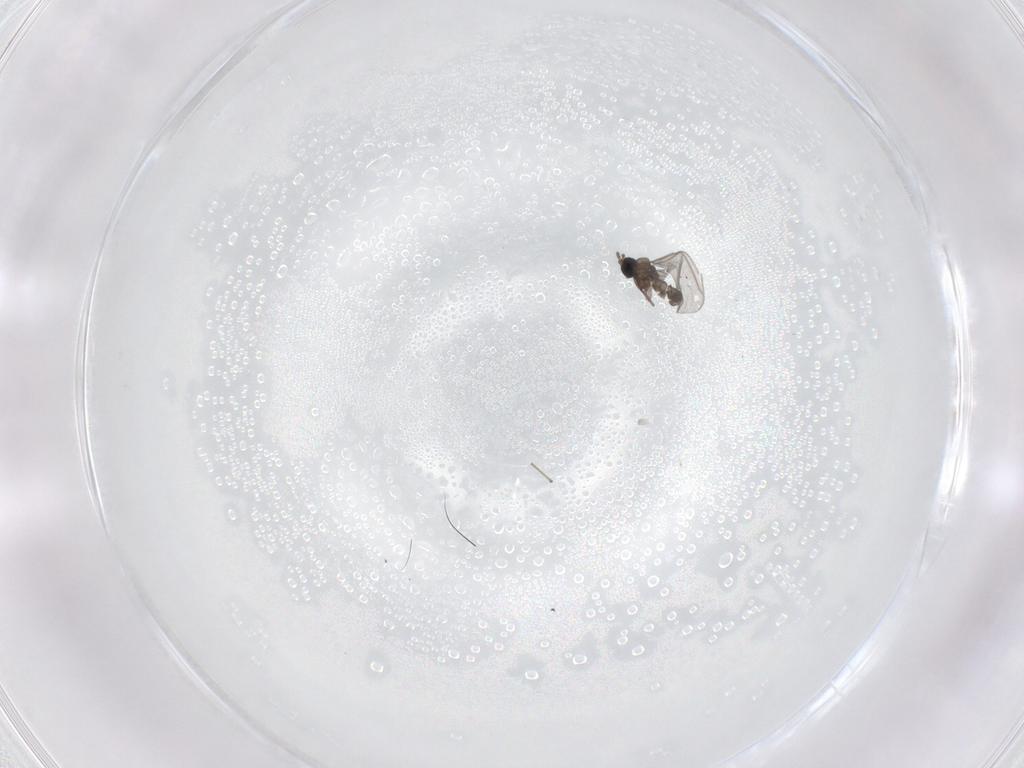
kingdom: Animalia
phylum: Arthropoda
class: Insecta
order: Diptera
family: Sciaridae
